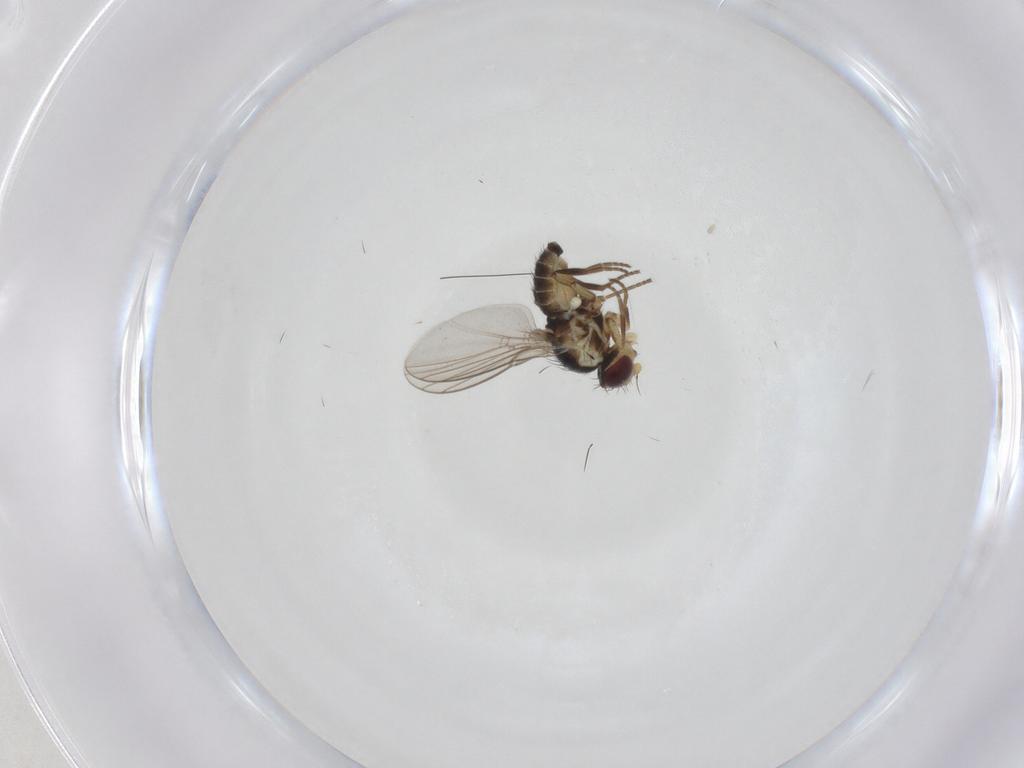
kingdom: Animalia
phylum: Arthropoda
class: Insecta
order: Diptera
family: Agromyzidae
